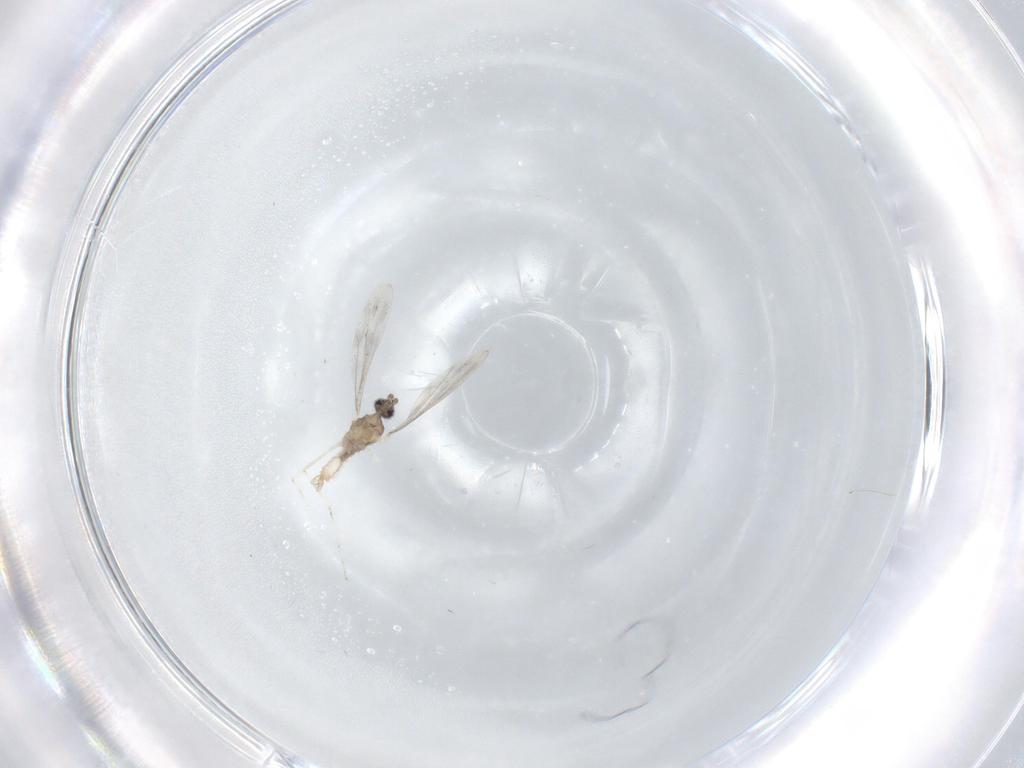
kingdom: Animalia
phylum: Arthropoda
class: Insecta
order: Diptera
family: Cecidomyiidae
